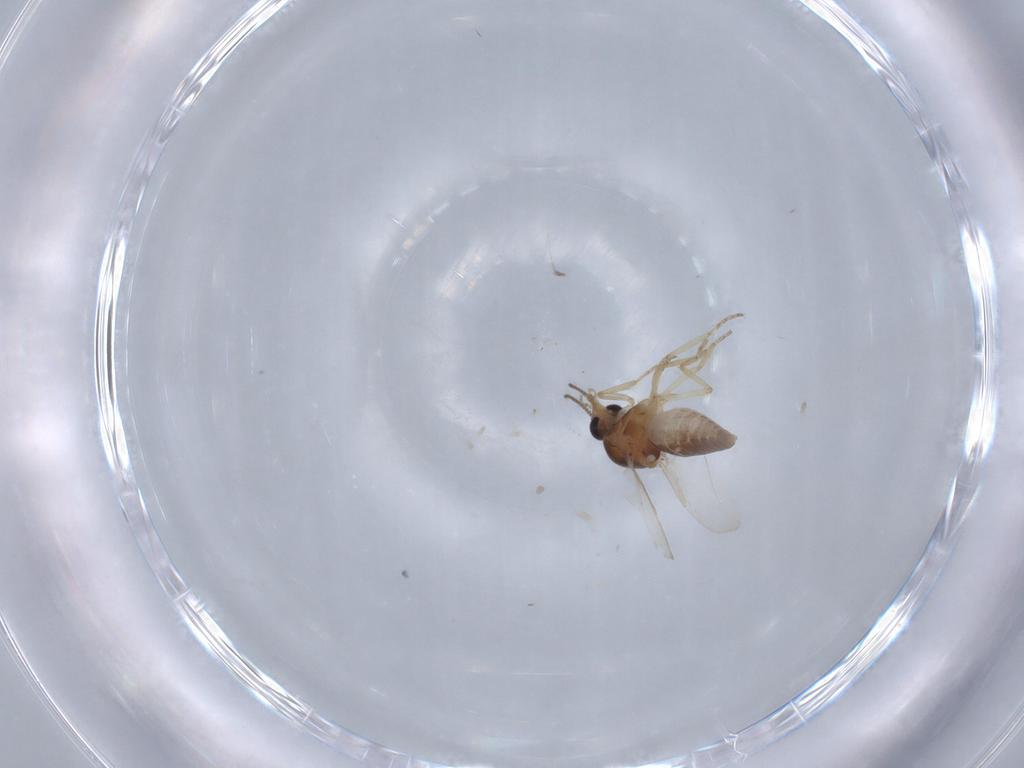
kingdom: Animalia
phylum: Arthropoda
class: Insecta
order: Diptera
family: Ceratopogonidae
